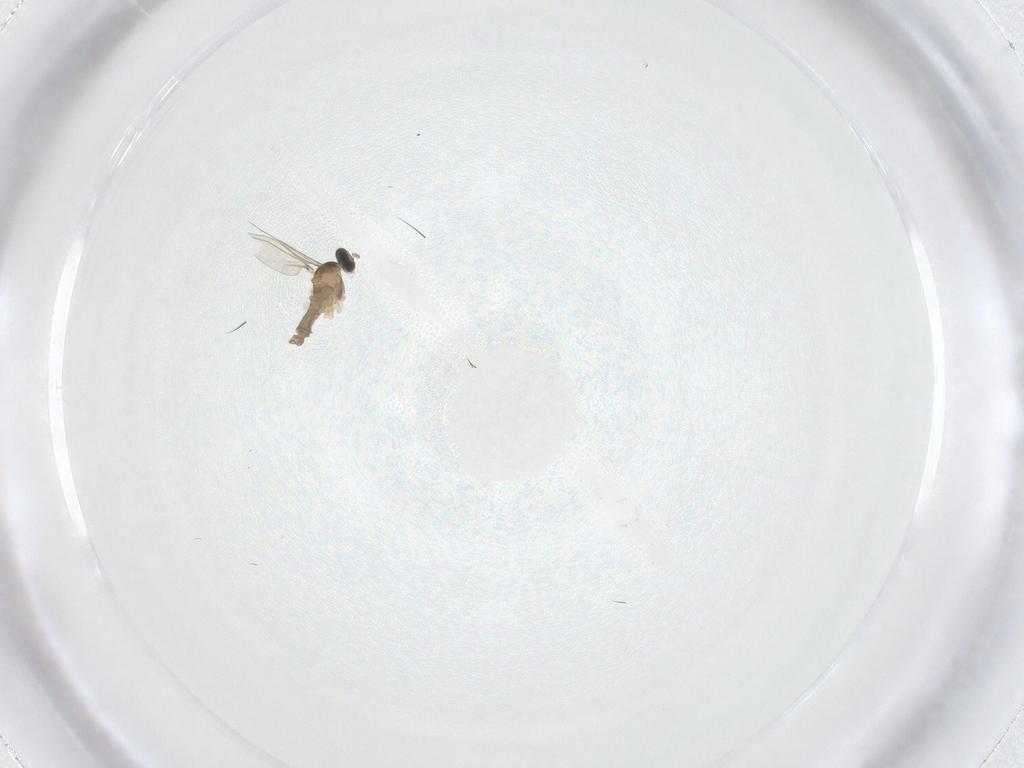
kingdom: Animalia
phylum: Arthropoda
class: Insecta
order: Diptera
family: Cecidomyiidae
